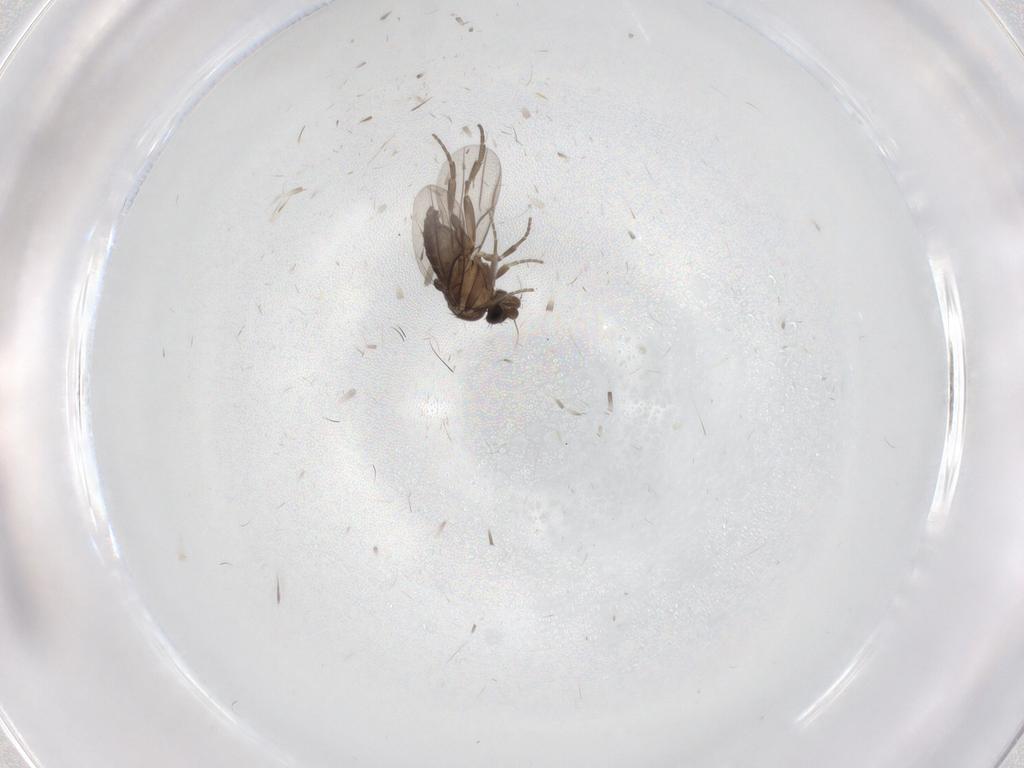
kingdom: Animalia
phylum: Arthropoda
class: Insecta
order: Diptera
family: Ceratopogonidae
